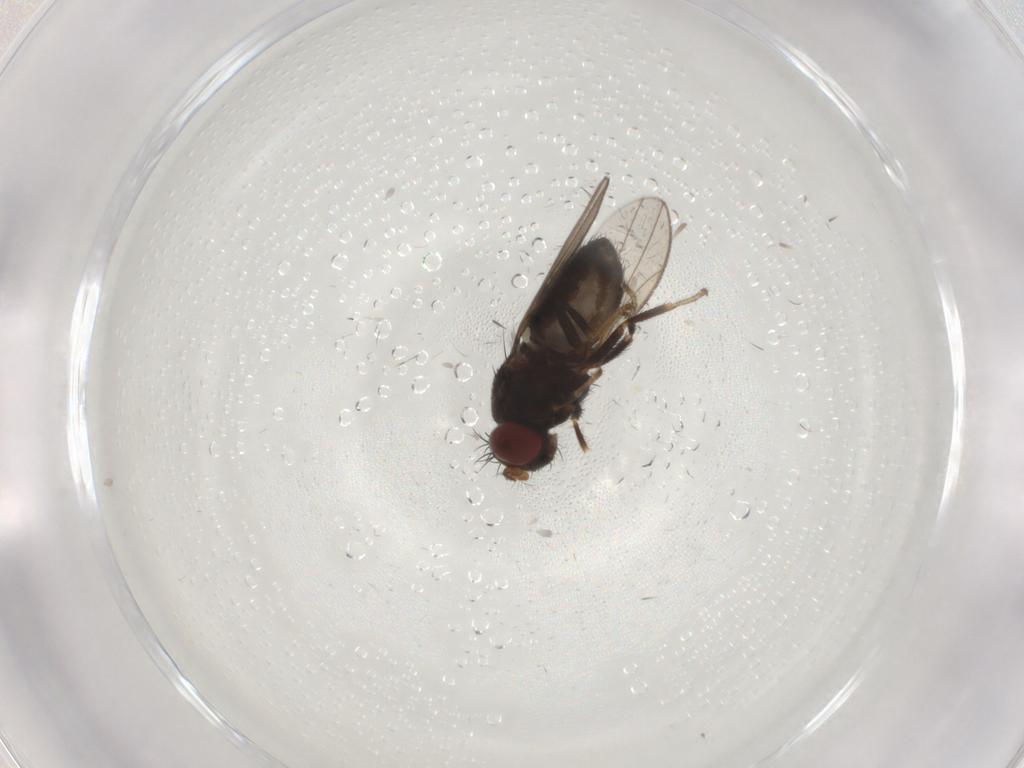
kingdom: Animalia
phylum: Arthropoda
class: Insecta
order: Diptera
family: Cecidomyiidae
